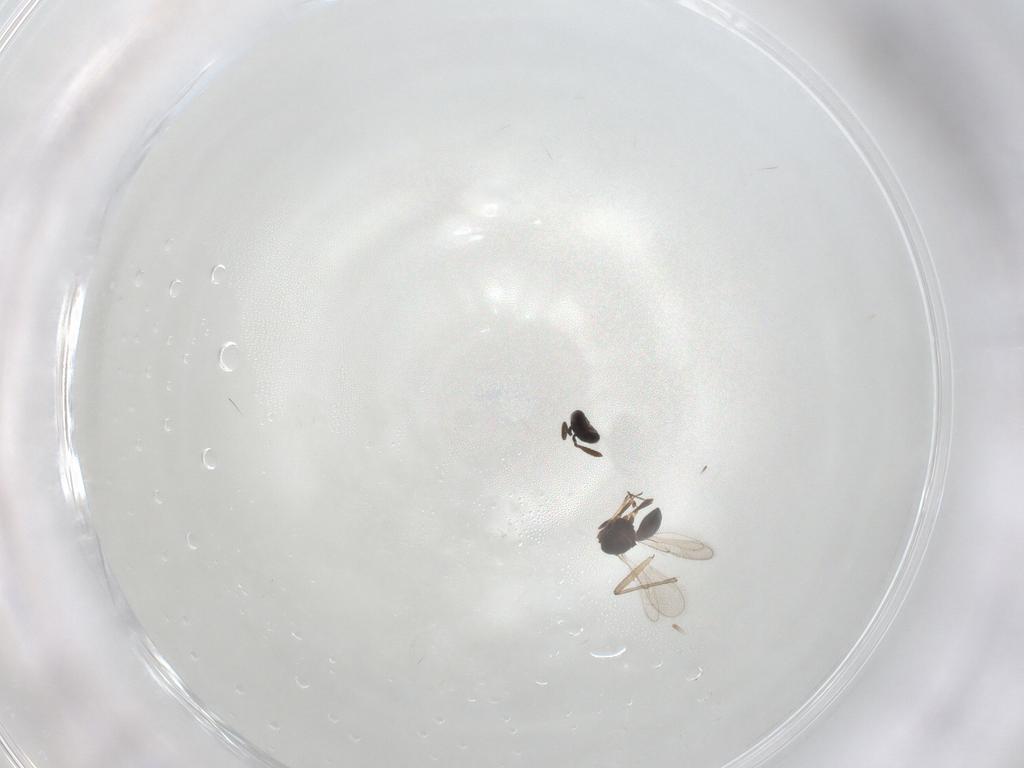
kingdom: Animalia
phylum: Arthropoda
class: Insecta
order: Hymenoptera
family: Scelionidae
